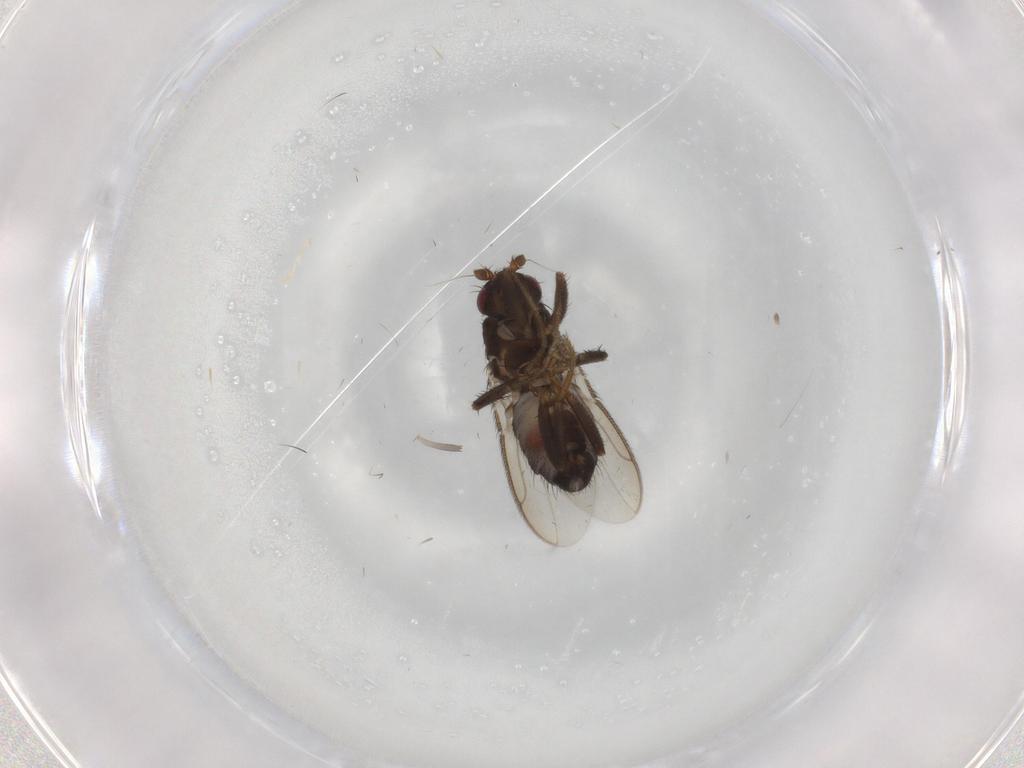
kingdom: Animalia
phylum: Arthropoda
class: Insecta
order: Diptera
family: Sphaeroceridae
